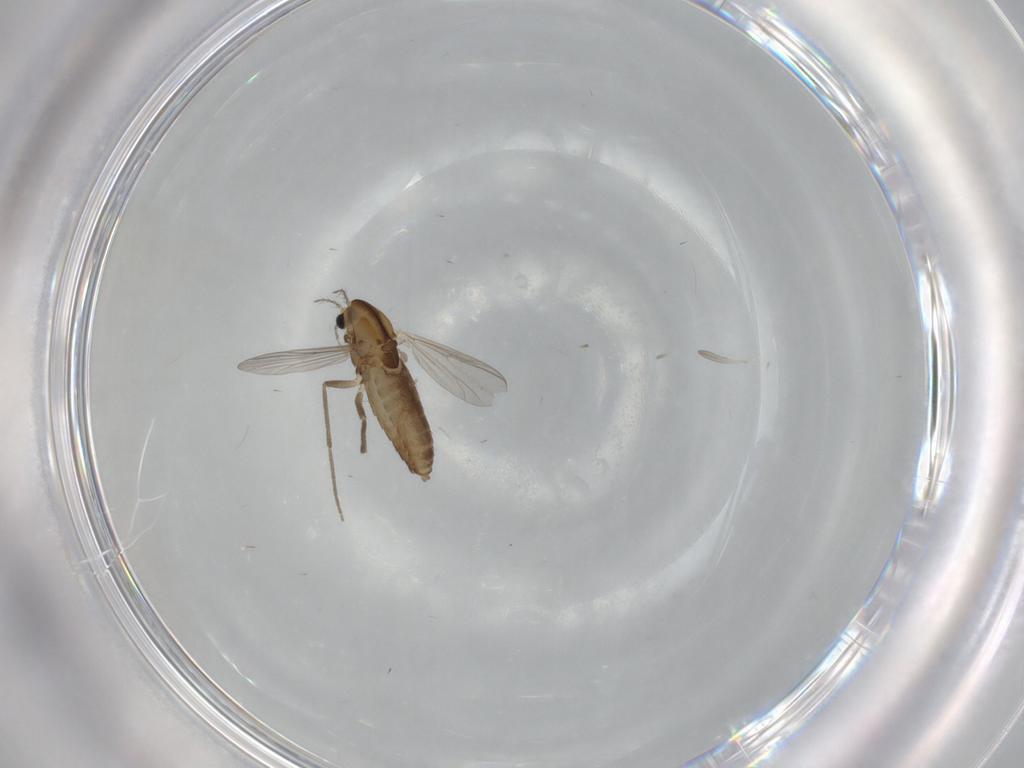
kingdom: Animalia
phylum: Arthropoda
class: Insecta
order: Diptera
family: Chironomidae
